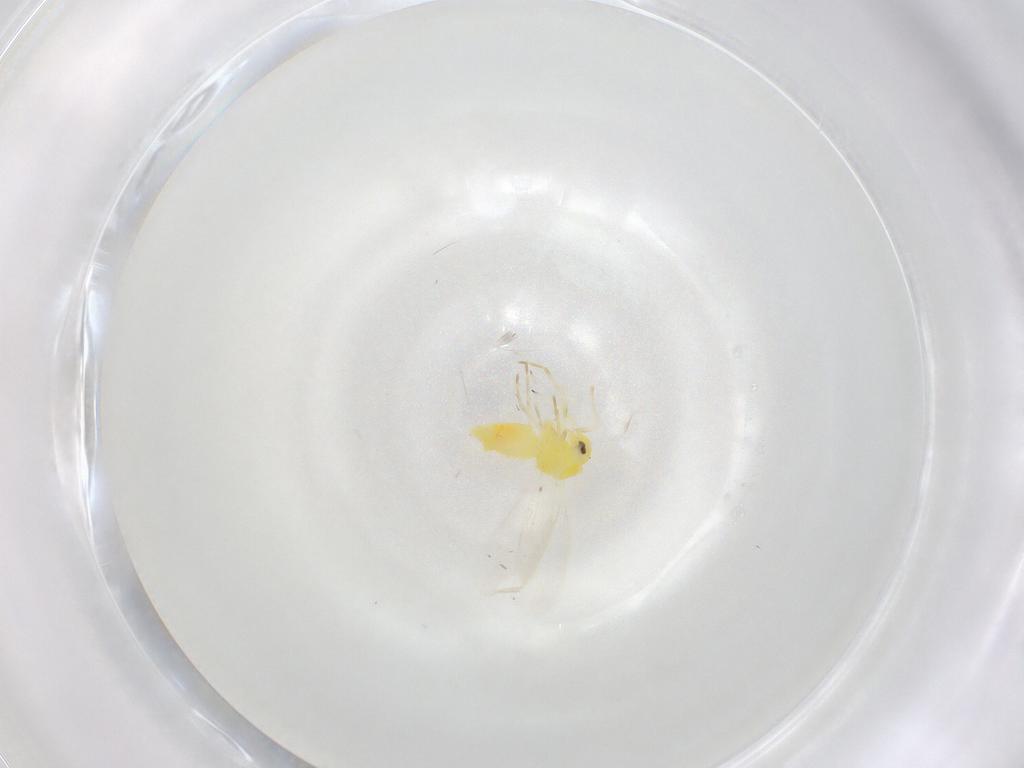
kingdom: Animalia
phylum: Arthropoda
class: Insecta
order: Hemiptera
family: Aleyrodidae
